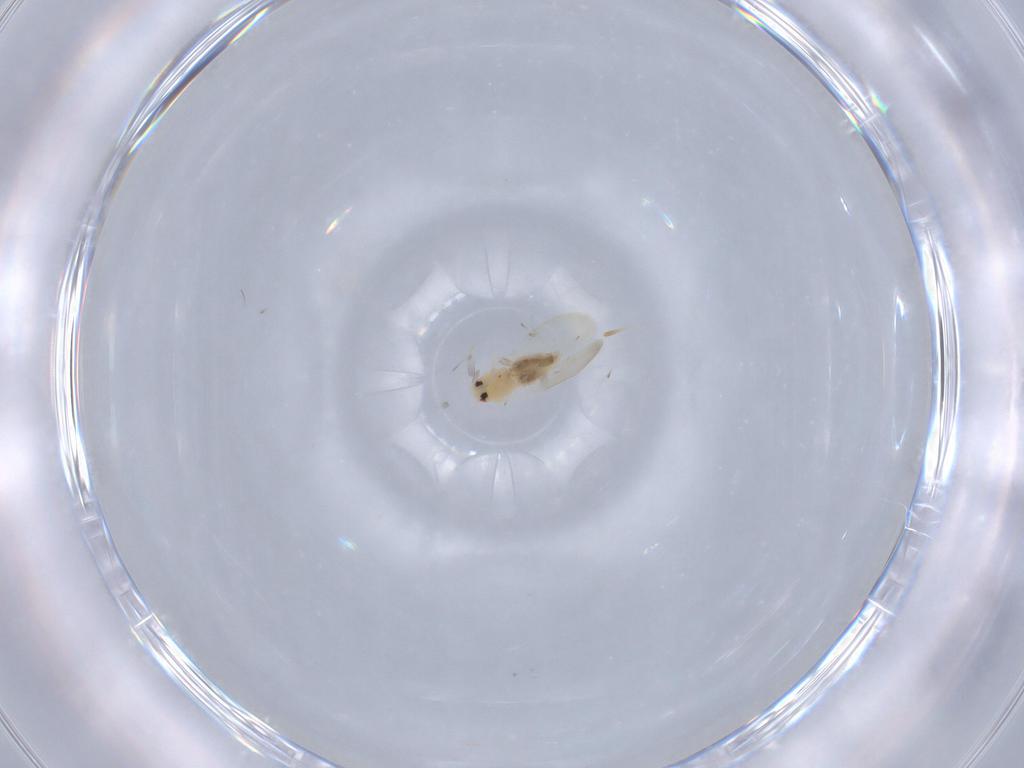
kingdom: Animalia
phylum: Arthropoda
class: Insecta
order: Hemiptera
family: Aleyrodidae
